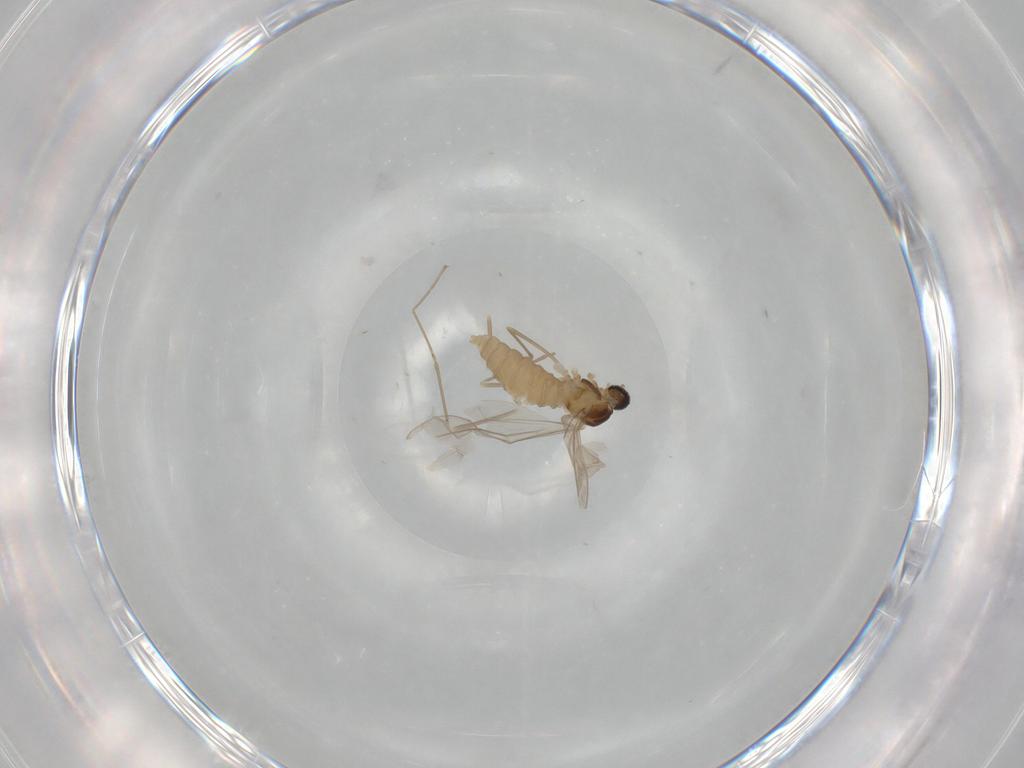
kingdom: Animalia
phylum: Arthropoda
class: Insecta
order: Diptera
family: Cecidomyiidae
